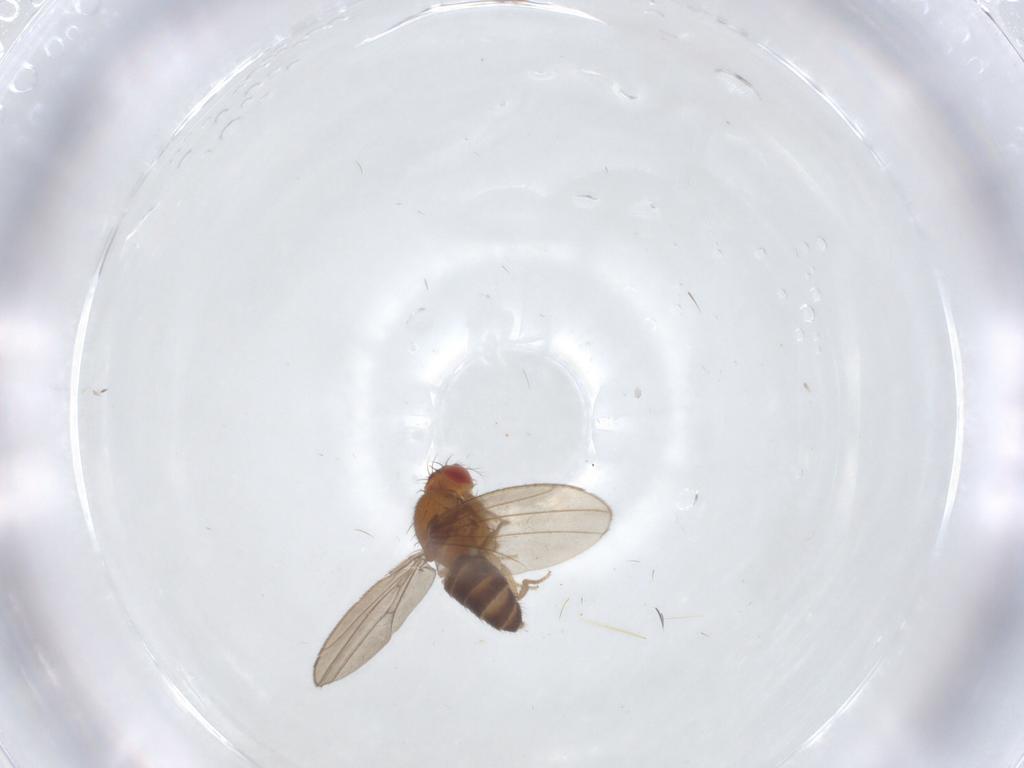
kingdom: Animalia
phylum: Arthropoda
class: Insecta
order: Diptera
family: Drosophilidae
